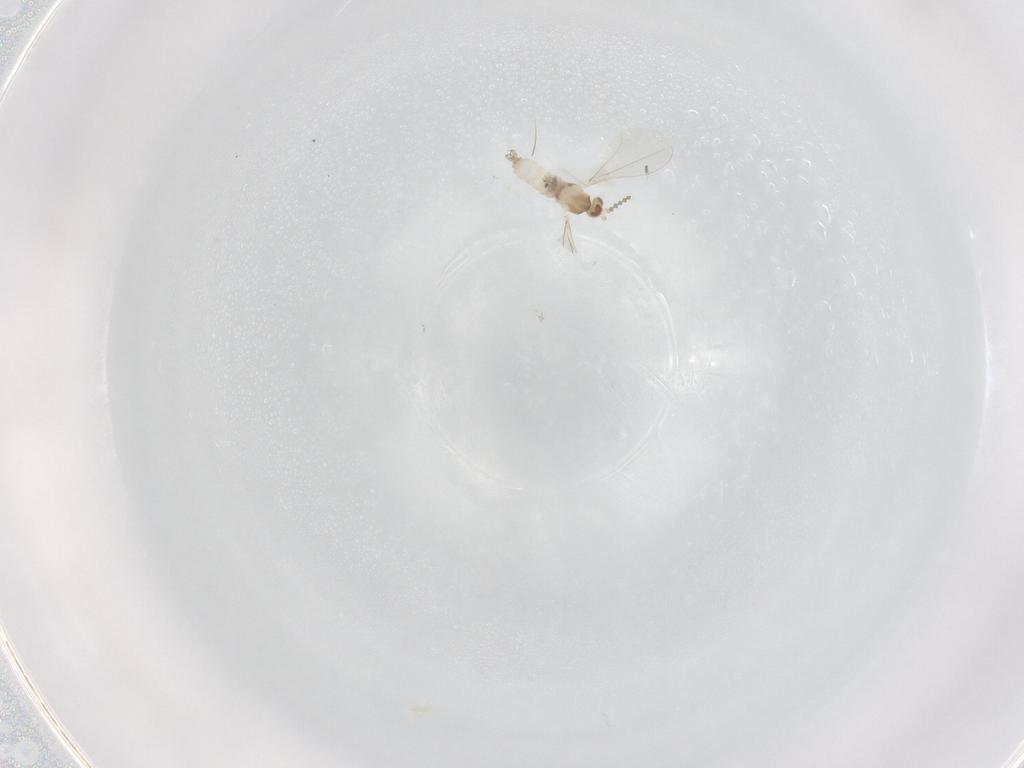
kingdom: Animalia
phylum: Arthropoda
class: Insecta
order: Diptera
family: Cecidomyiidae
